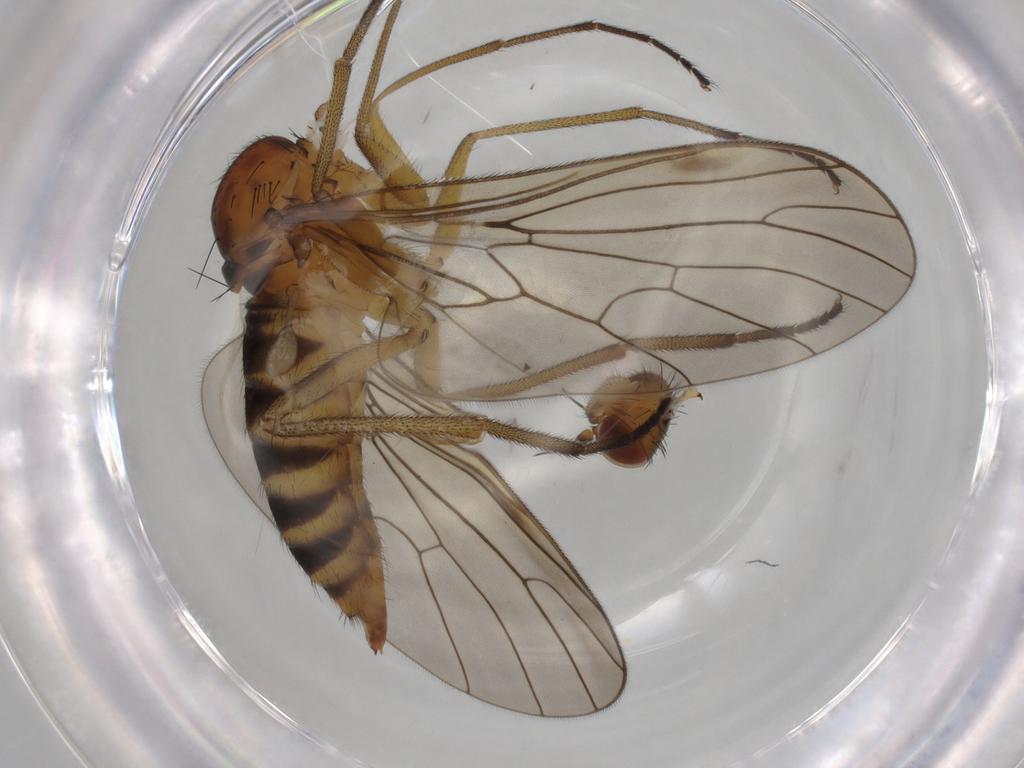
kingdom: Animalia
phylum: Arthropoda
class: Insecta
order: Diptera
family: Brachystomatidae
